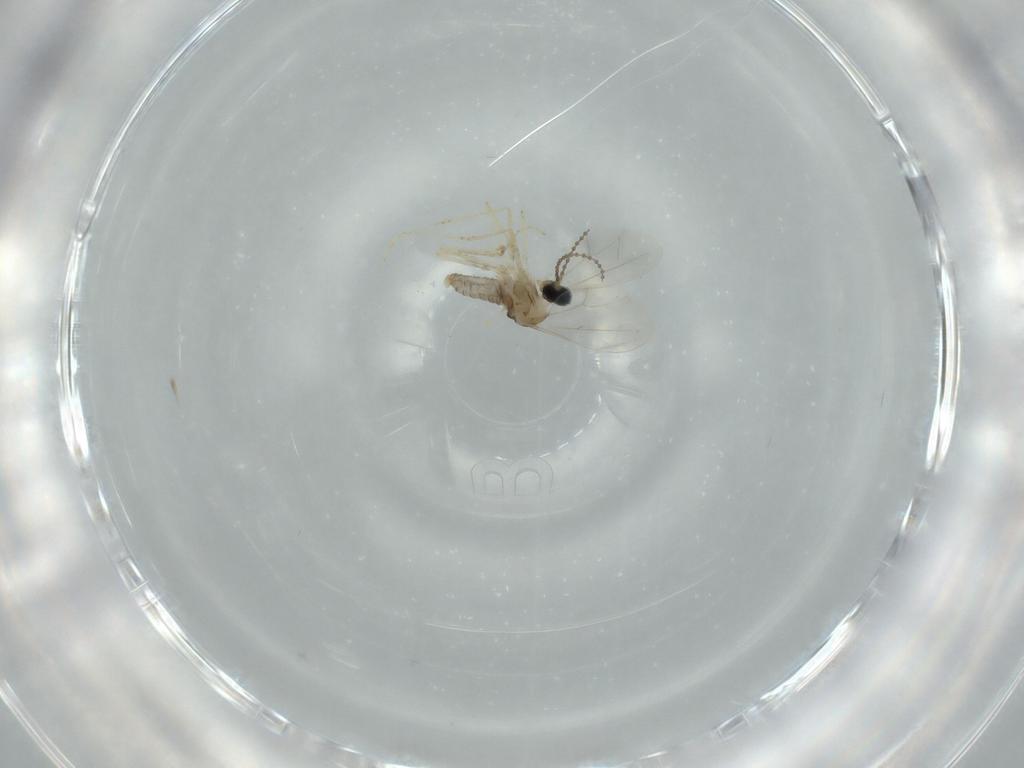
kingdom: Animalia
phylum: Arthropoda
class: Insecta
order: Diptera
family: Cecidomyiidae
